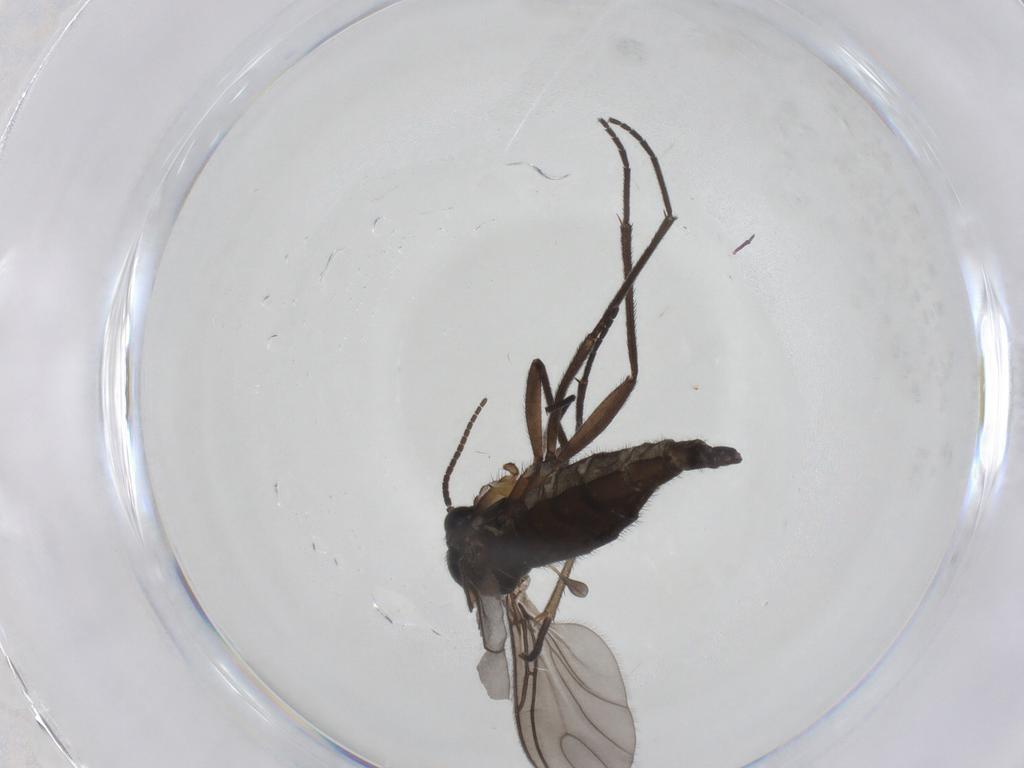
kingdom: Animalia
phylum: Arthropoda
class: Insecta
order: Diptera
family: Sciaridae
